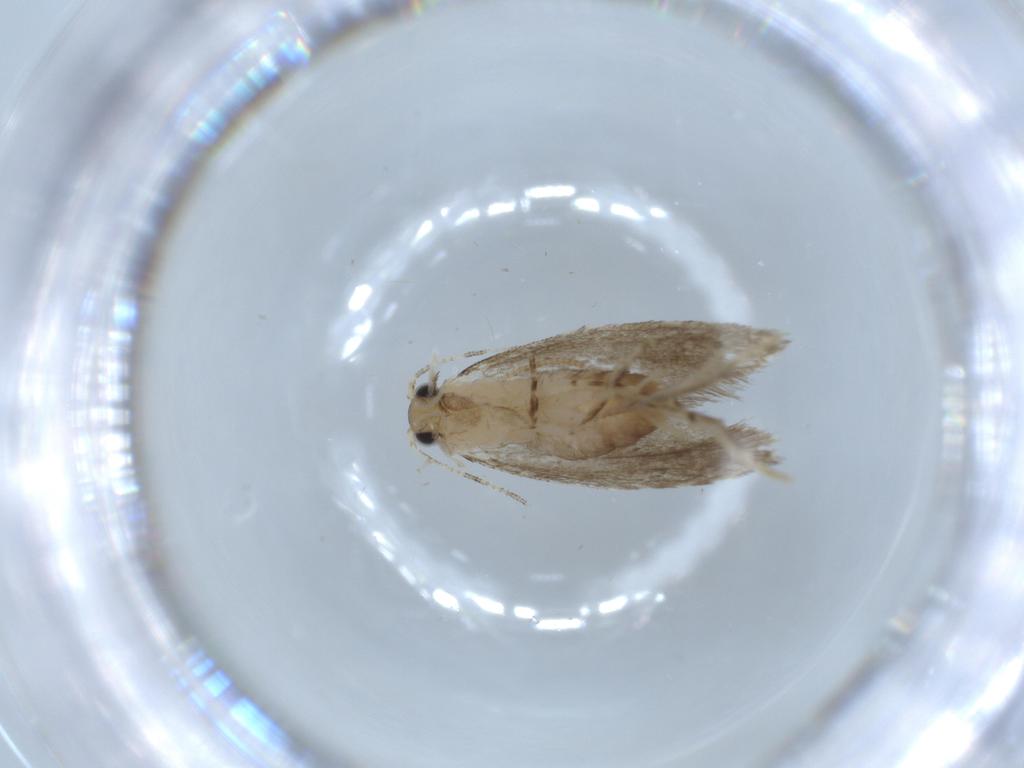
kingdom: Animalia
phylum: Arthropoda
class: Insecta
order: Lepidoptera
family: Tineidae
